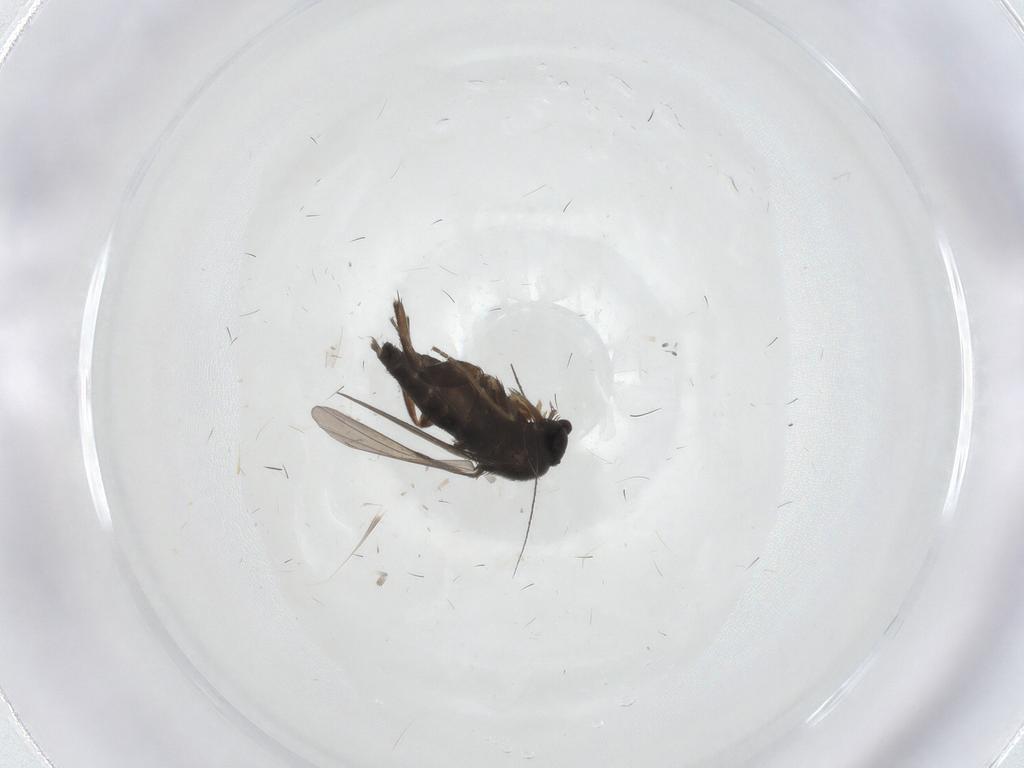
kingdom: Animalia
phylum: Arthropoda
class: Insecta
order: Diptera
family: Phoridae
